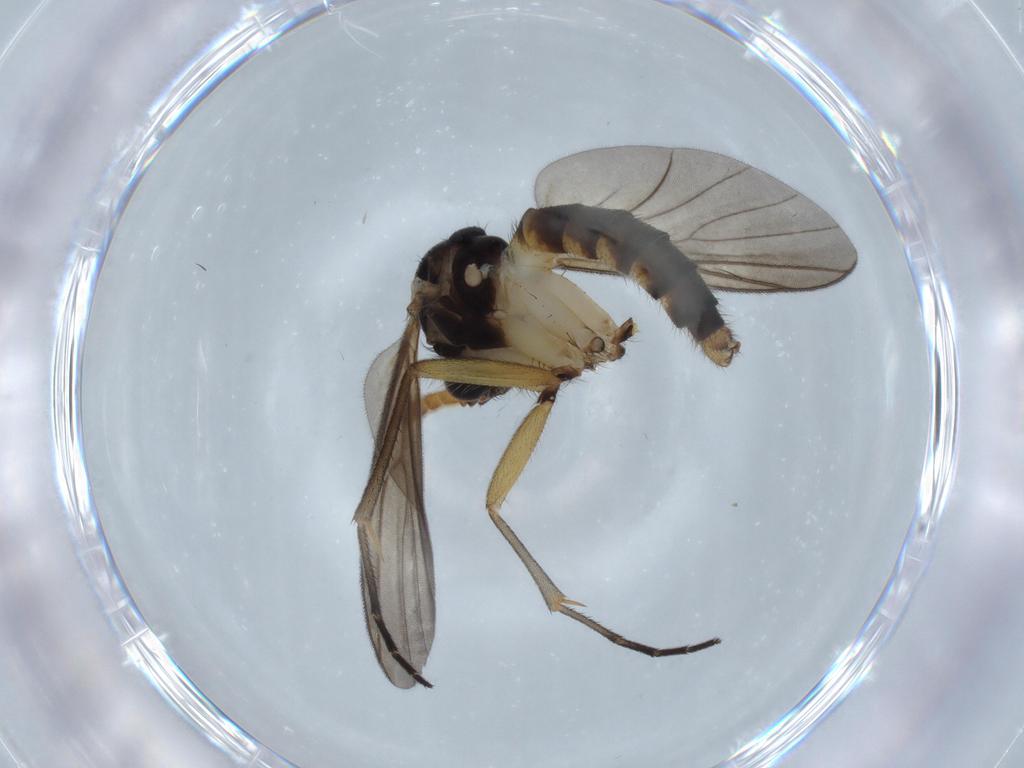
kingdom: Animalia
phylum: Arthropoda
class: Insecta
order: Diptera
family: Sciaridae
